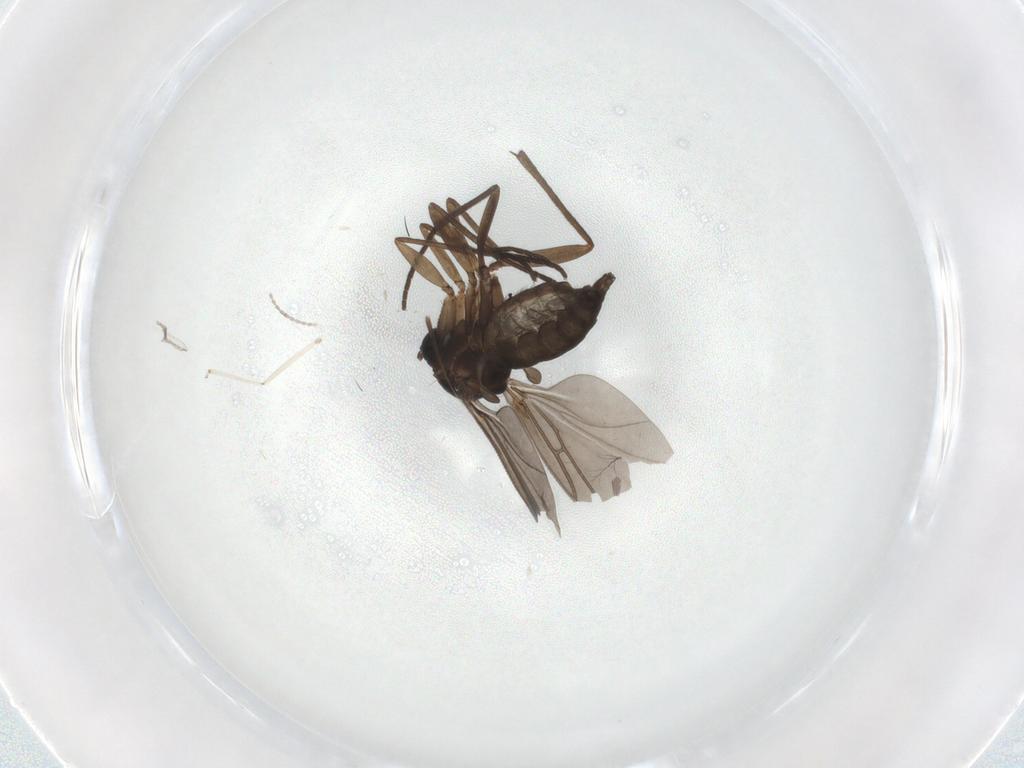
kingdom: Animalia
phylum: Arthropoda
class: Insecta
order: Diptera
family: Sciaridae
